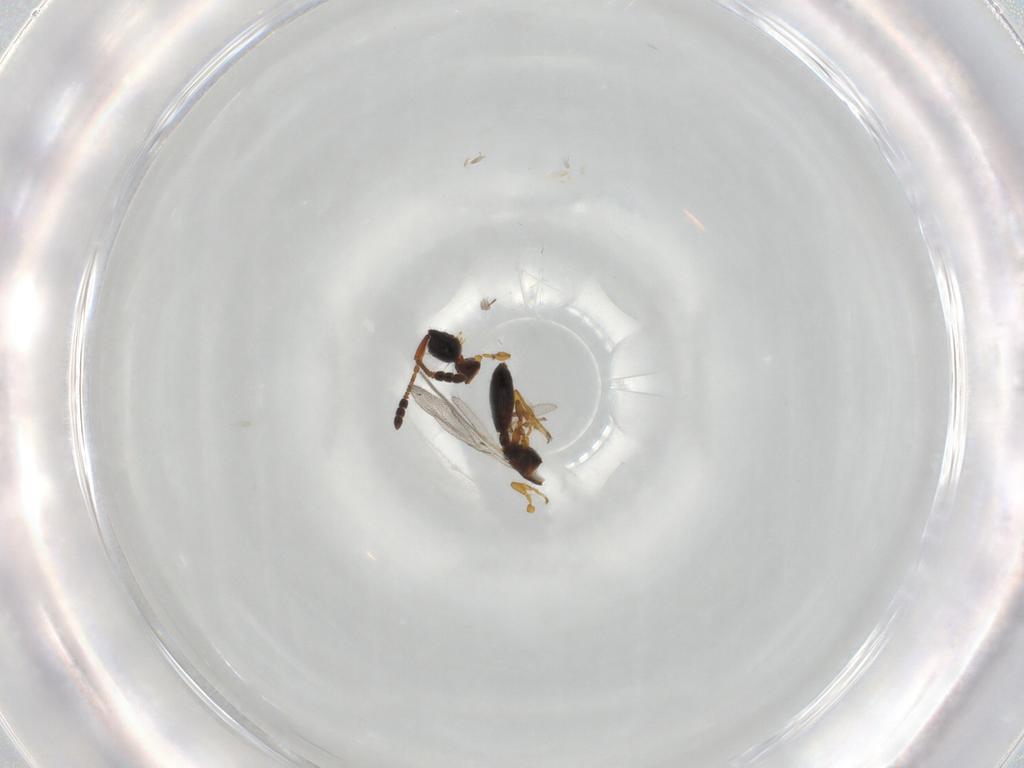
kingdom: Animalia
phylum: Arthropoda
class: Insecta
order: Hymenoptera
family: Diapriidae
